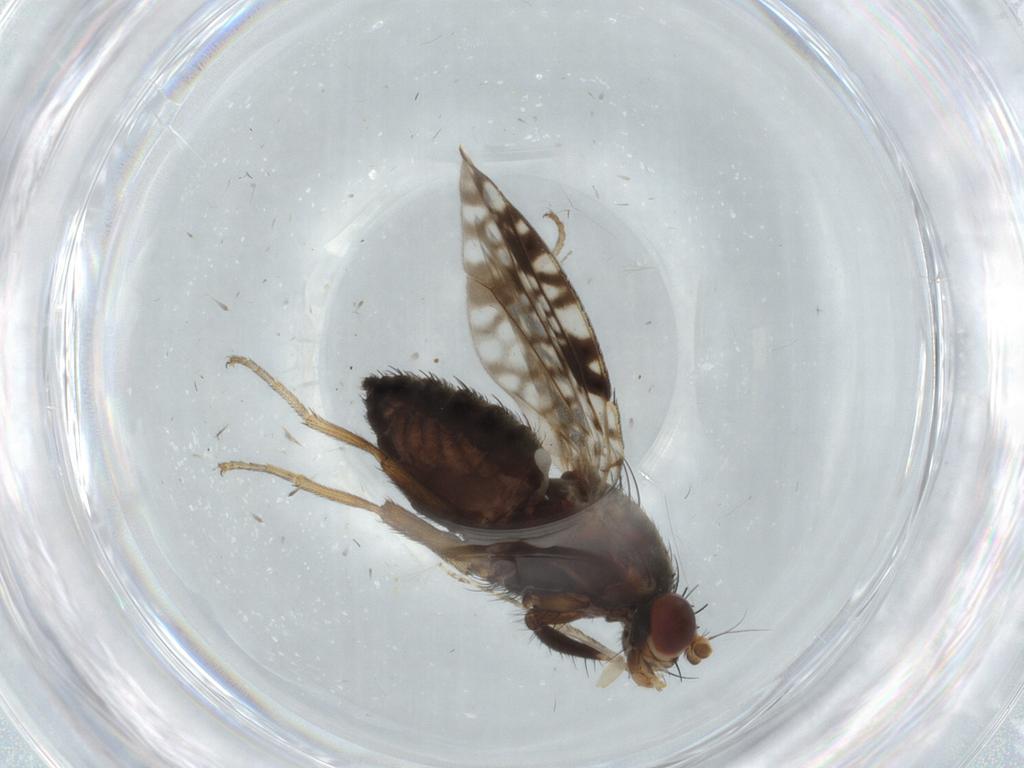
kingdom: Animalia
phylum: Arthropoda
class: Insecta
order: Diptera
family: Tephritidae
